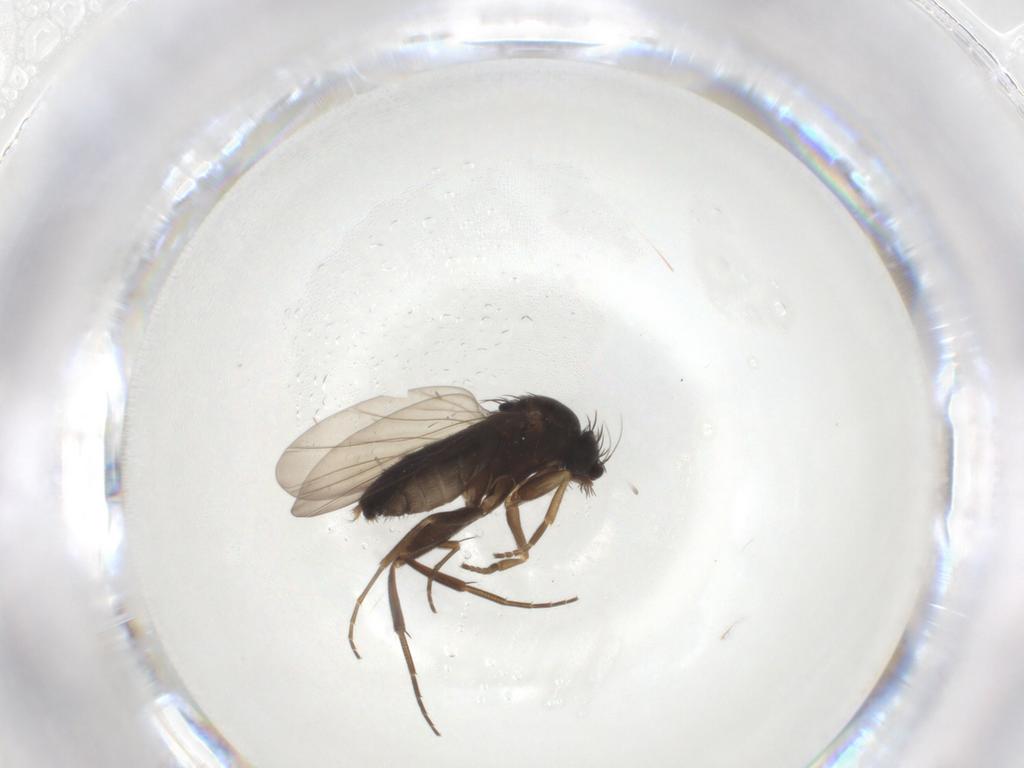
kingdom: Animalia
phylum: Arthropoda
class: Insecta
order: Diptera
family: Phoridae
